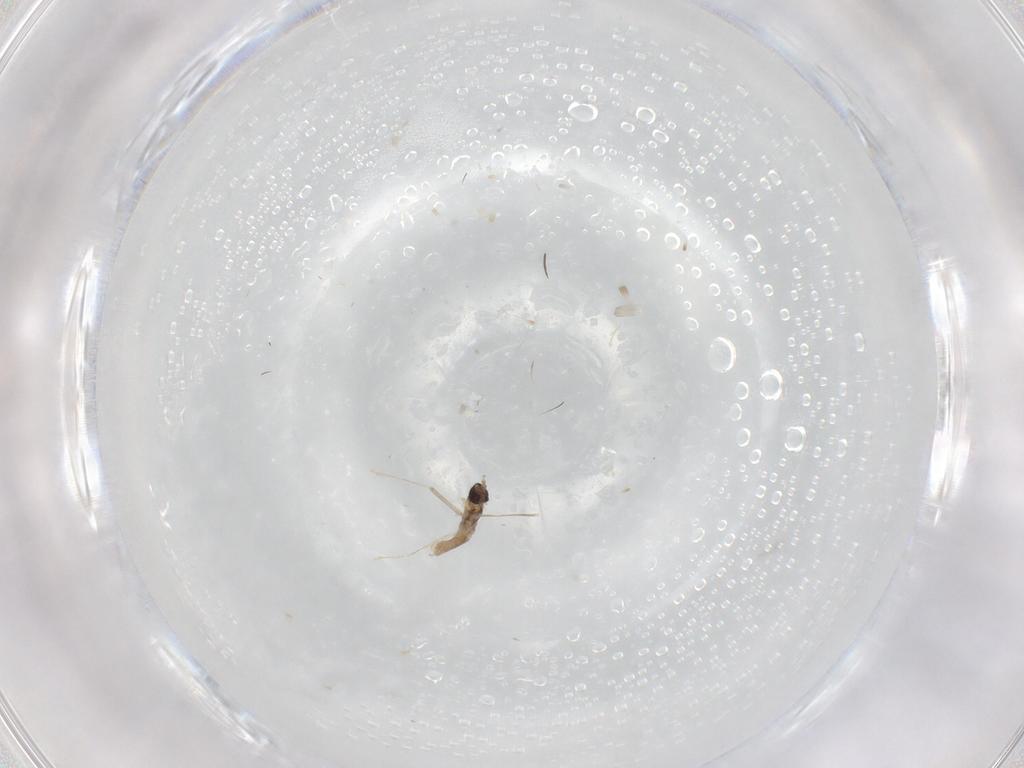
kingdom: Animalia
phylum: Arthropoda
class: Insecta
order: Diptera
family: Cecidomyiidae
